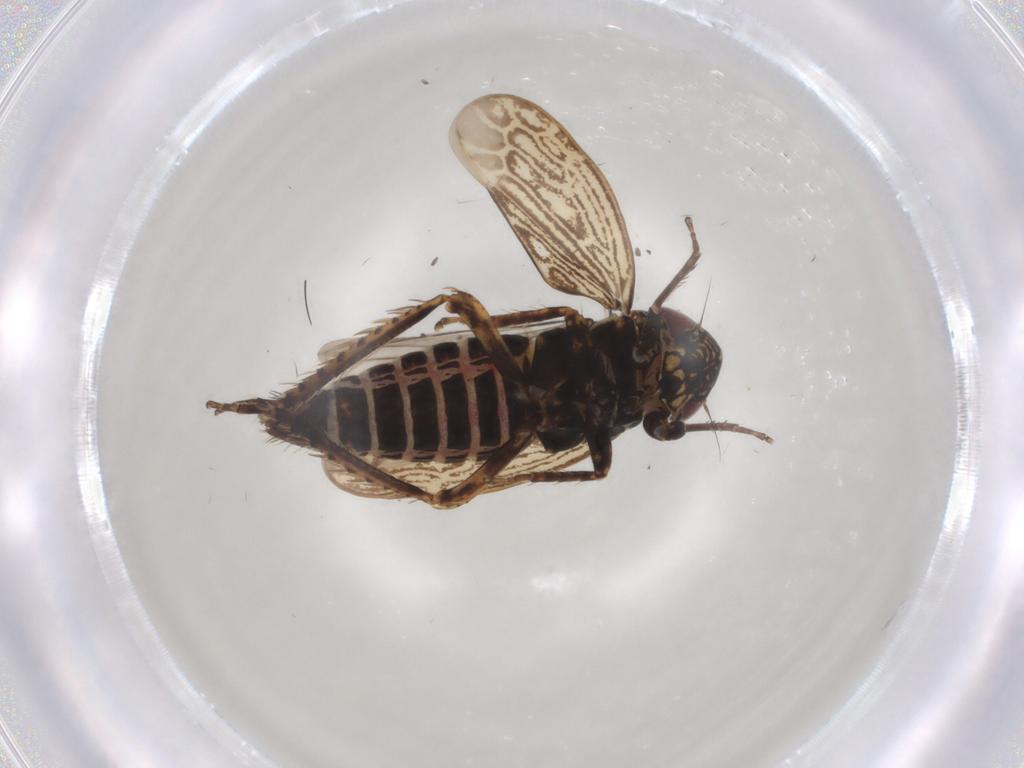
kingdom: Animalia
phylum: Arthropoda
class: Insecta
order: Hemiptera
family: Cicadellidae
